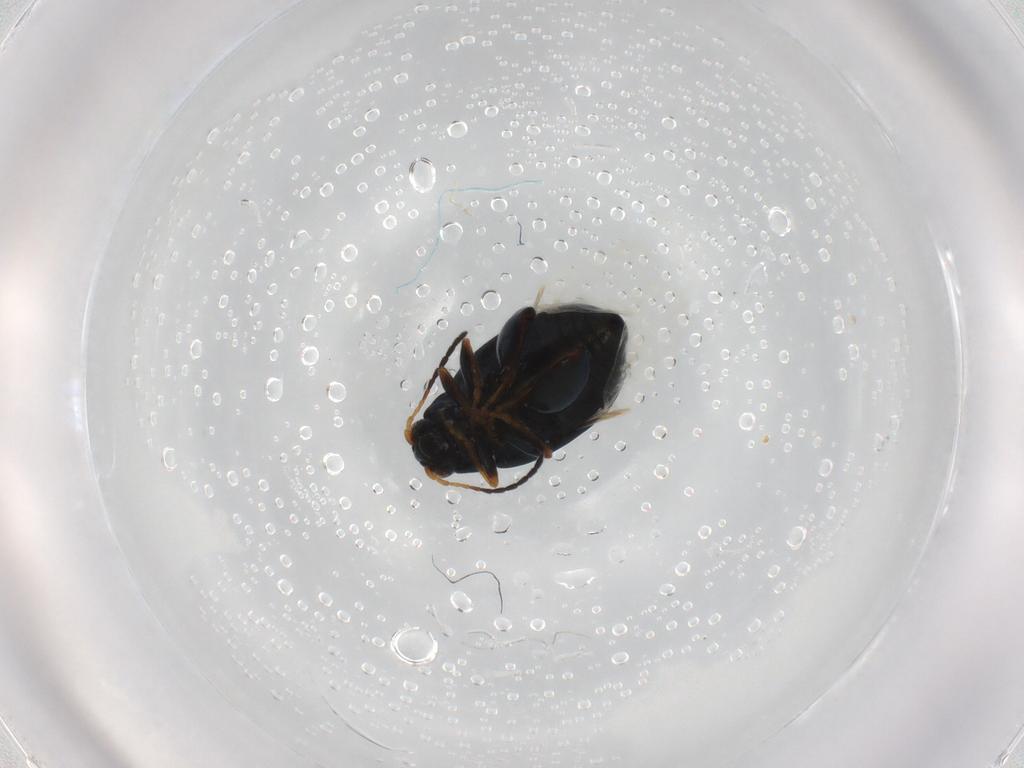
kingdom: Animalia
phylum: Arthropoda
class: Insecta
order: Coleoptera
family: Chrysomelidae
